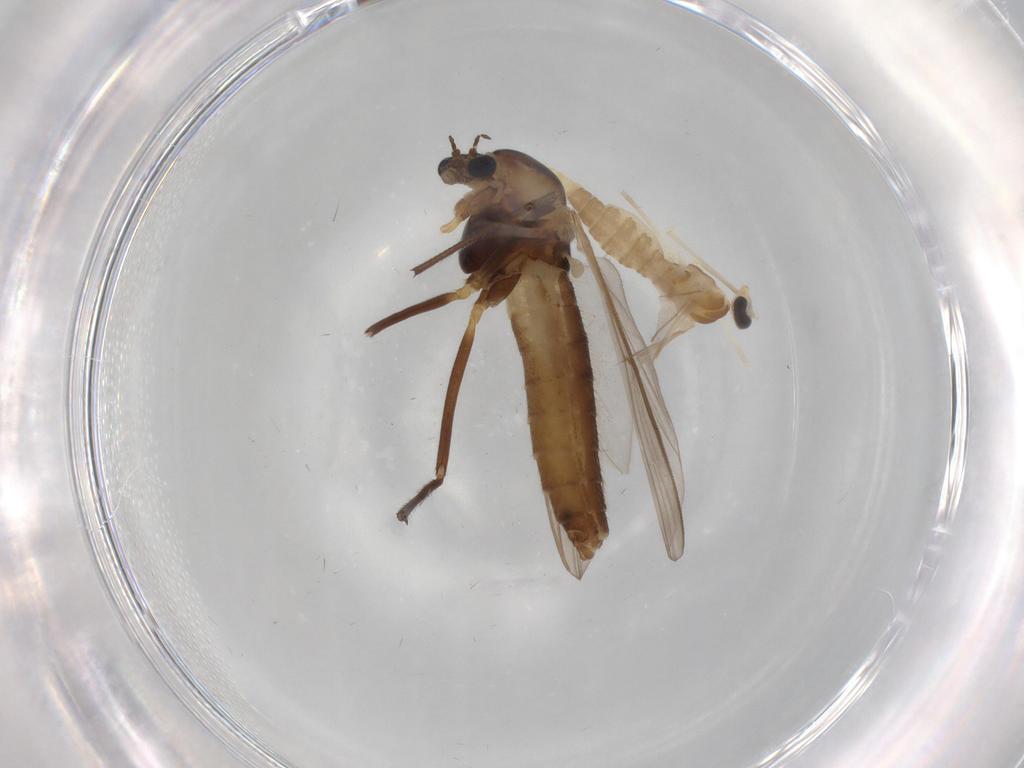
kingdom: Animalia
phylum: Arthropoda
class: Insecta
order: Diptera
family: Cecidomyiidae
